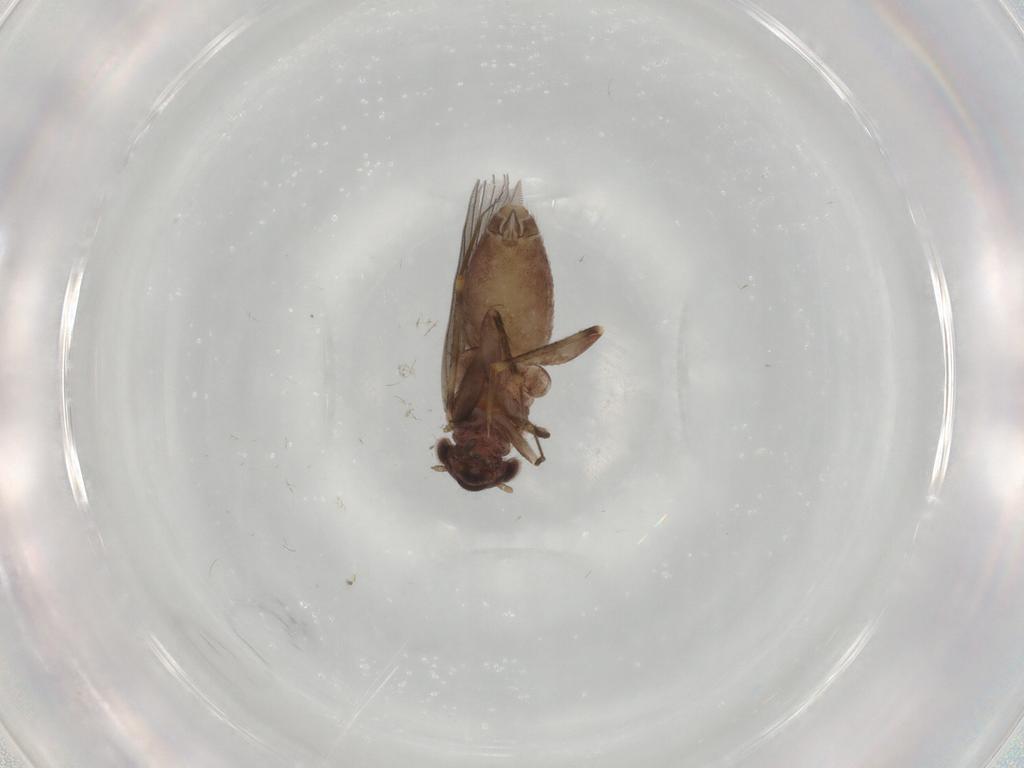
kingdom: Animalia
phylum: Arthropoda
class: Insecta
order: Psocodea
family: Lepidopsocidae
